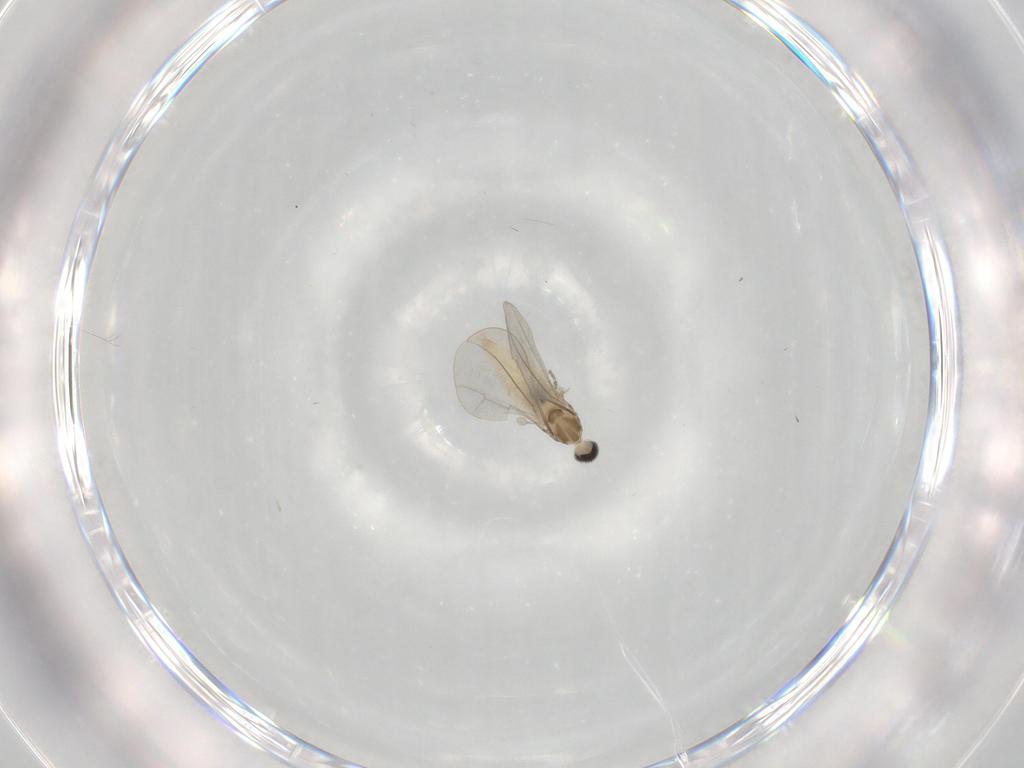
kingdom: Animalia
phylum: Arthropoda
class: Insecta
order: Diptera
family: Cecidomyiidae
